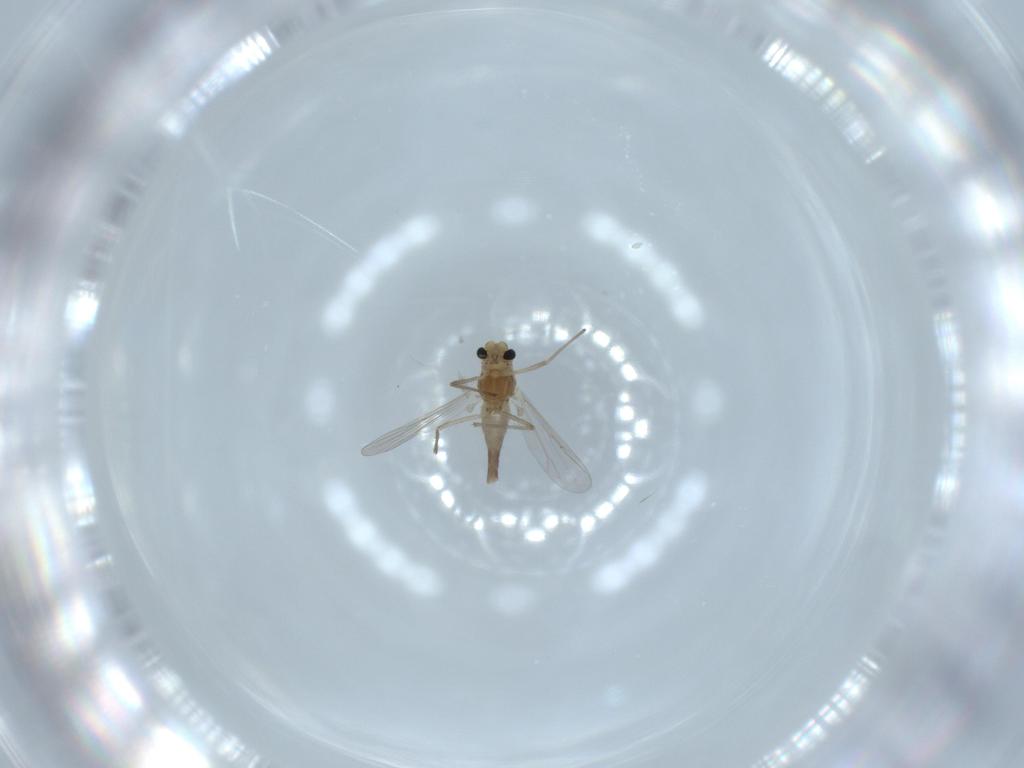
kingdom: Animalia
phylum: Arthropoda
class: Insecta
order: Diptera
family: Chironomidae
